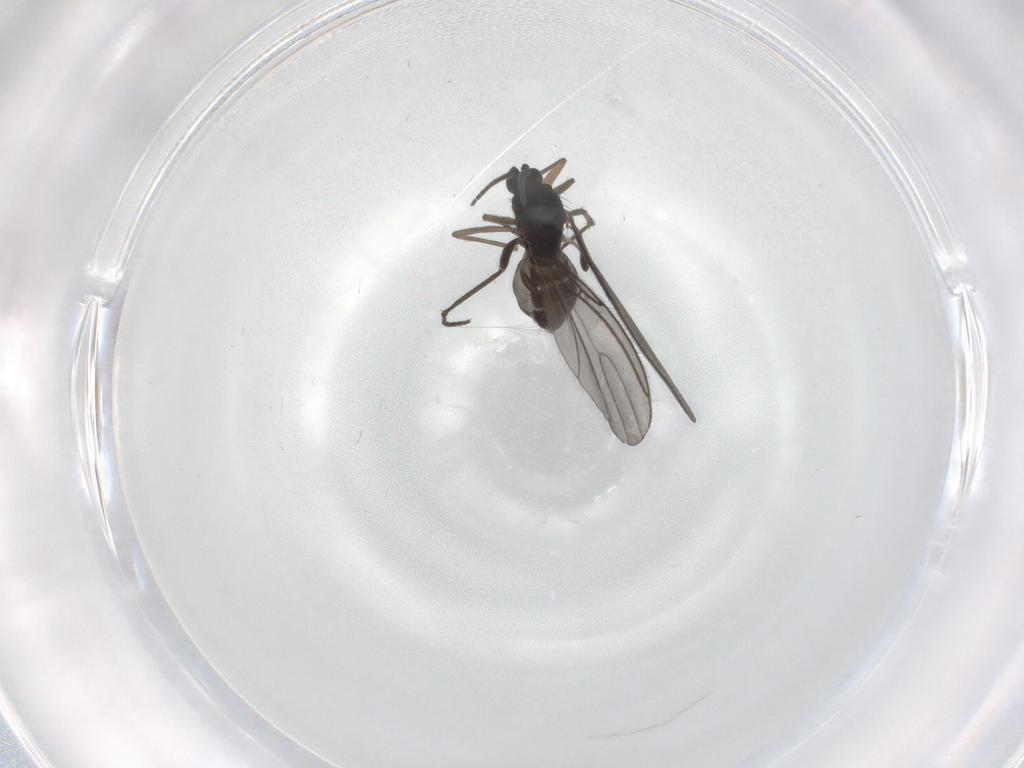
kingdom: Animalia
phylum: Arthropoda
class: Insecta
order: Diptera
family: Sciaridae
